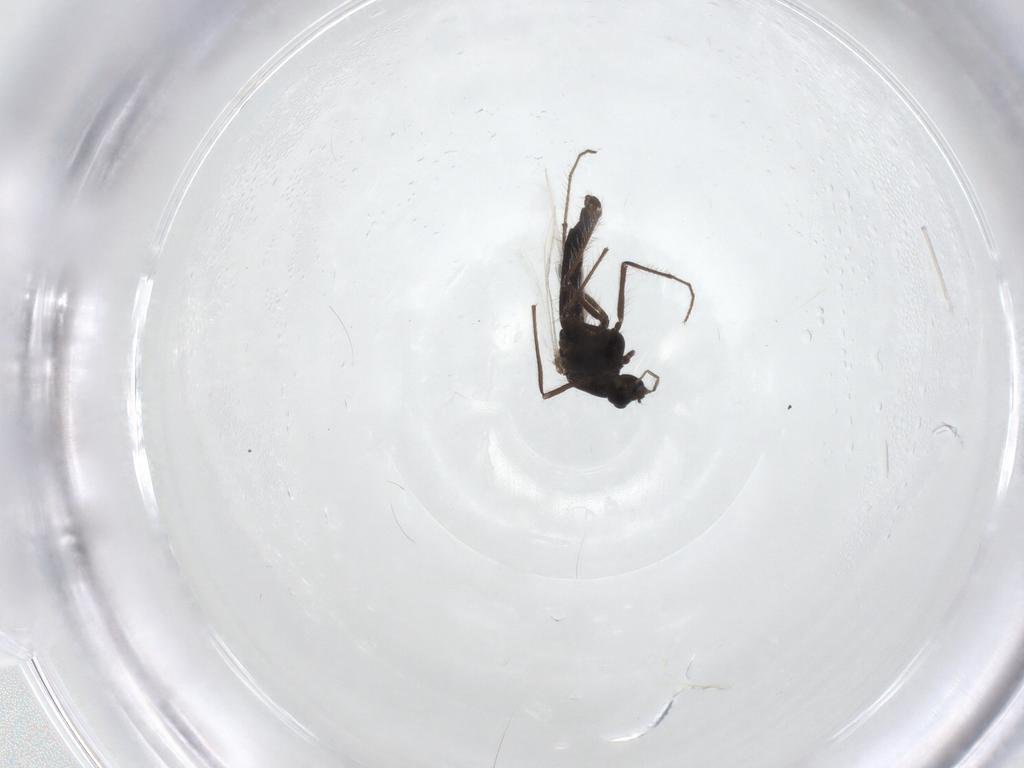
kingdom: Animalia
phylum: Arthropoda
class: Insecta
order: Diptera
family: Chironomidae
